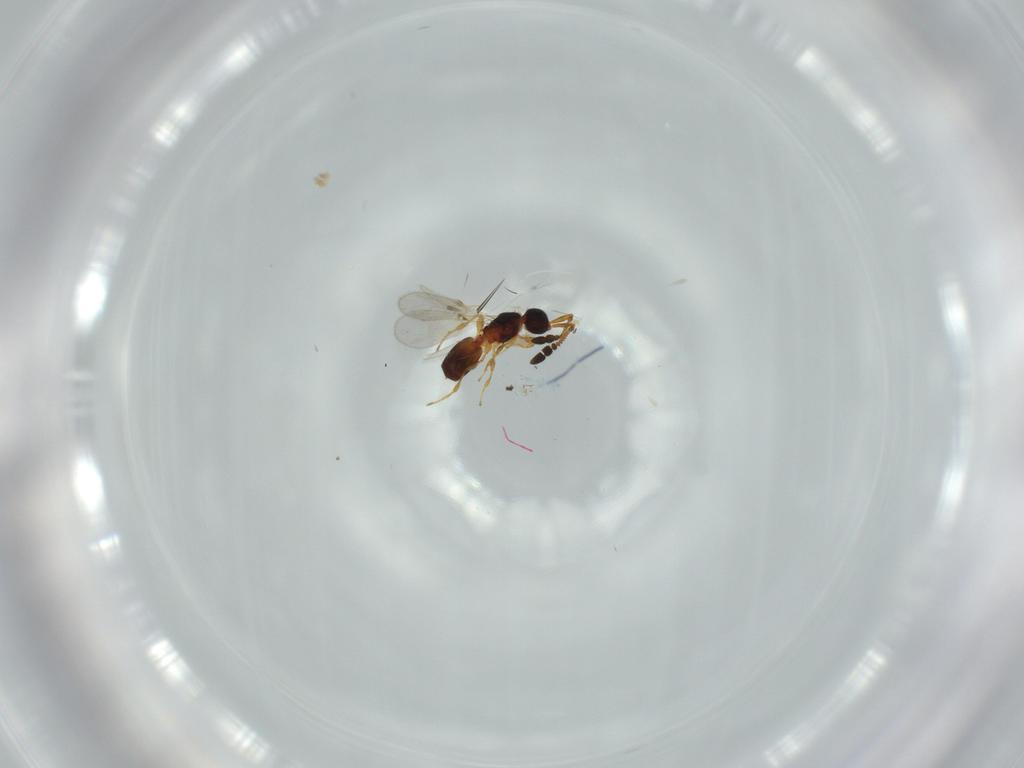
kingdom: Animalia
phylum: Arthropoda
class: Insecta
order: Hymenoptera
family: Diapriidae
